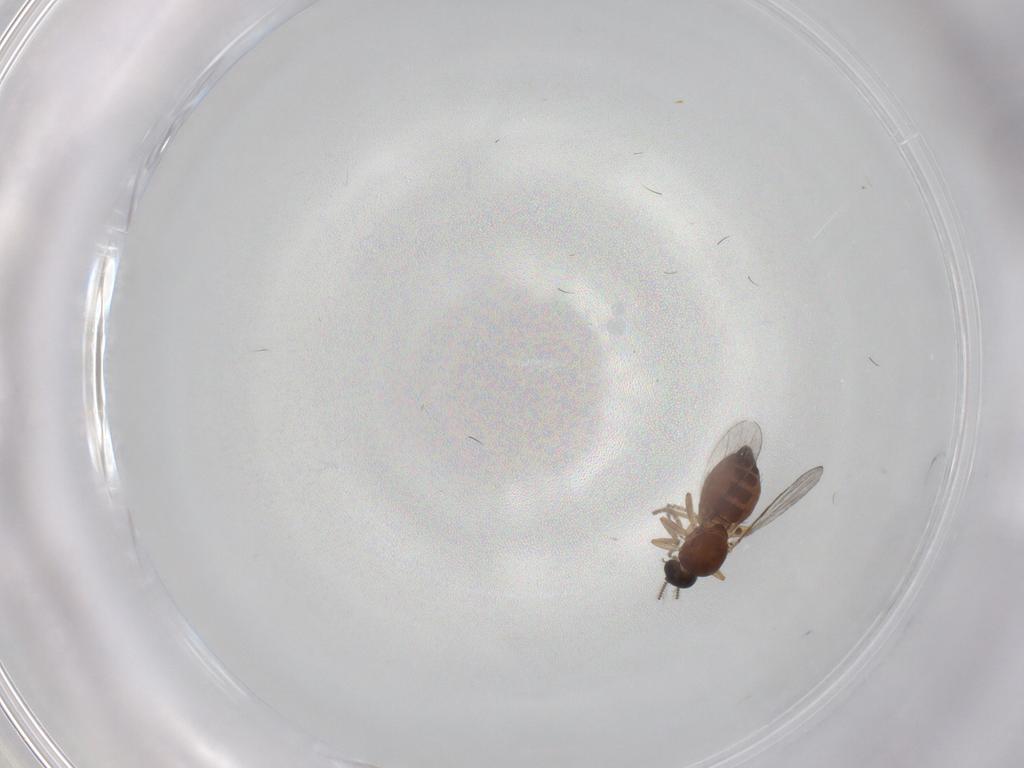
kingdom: Animalia
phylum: Arthropoda
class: Insecta
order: Diptera
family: Ceratopogonidae
